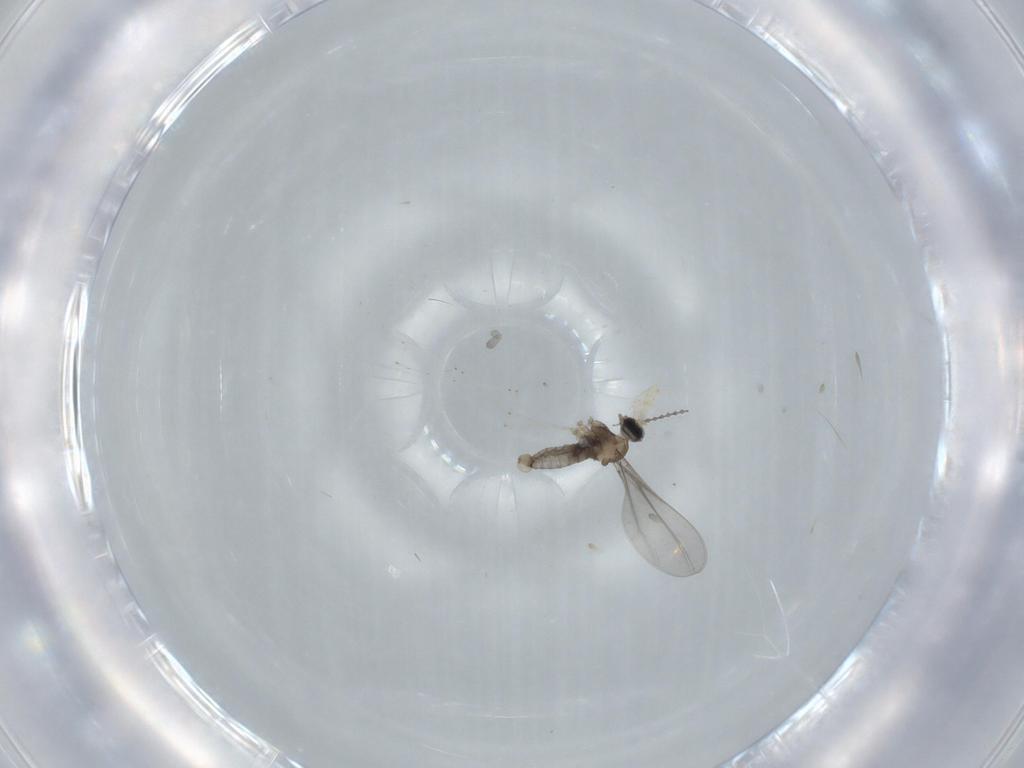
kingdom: Animalia
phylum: Arthropoda
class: Insecta
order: Diptera
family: Cecidomyiidae
